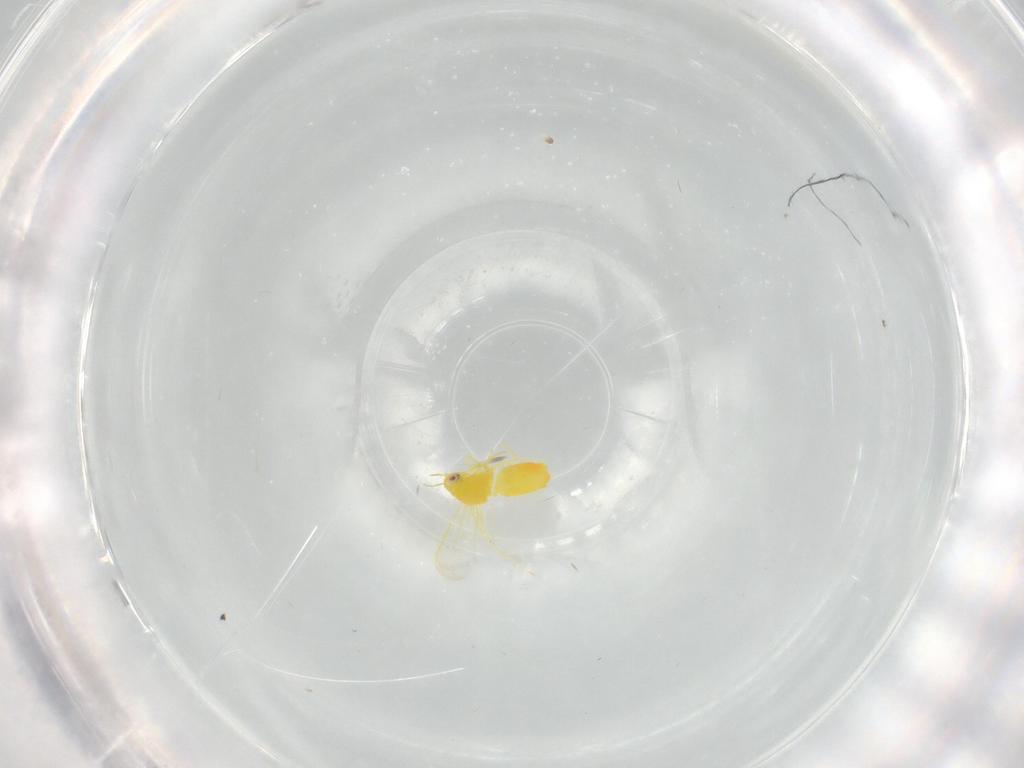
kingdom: Animalia
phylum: Arthropoda
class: Insecta
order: Hemiptera
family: Aleyrodidae
